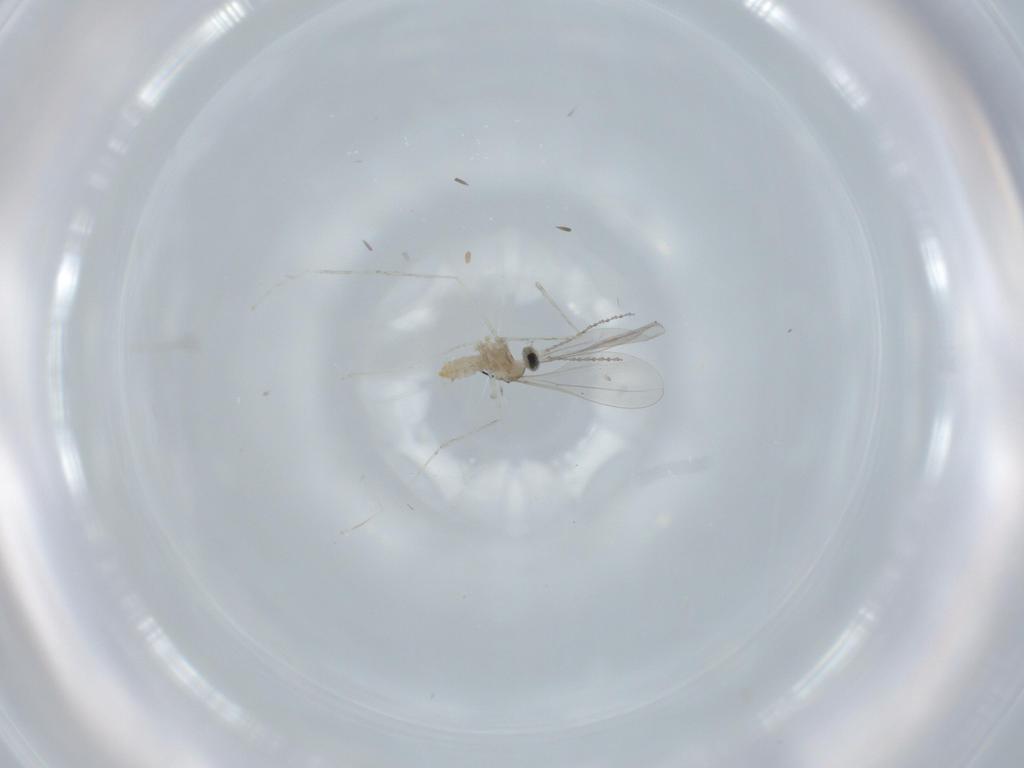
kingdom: Animalia
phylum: Arthropoda
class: Insecta
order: Diptera
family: Cecidomyiidae
